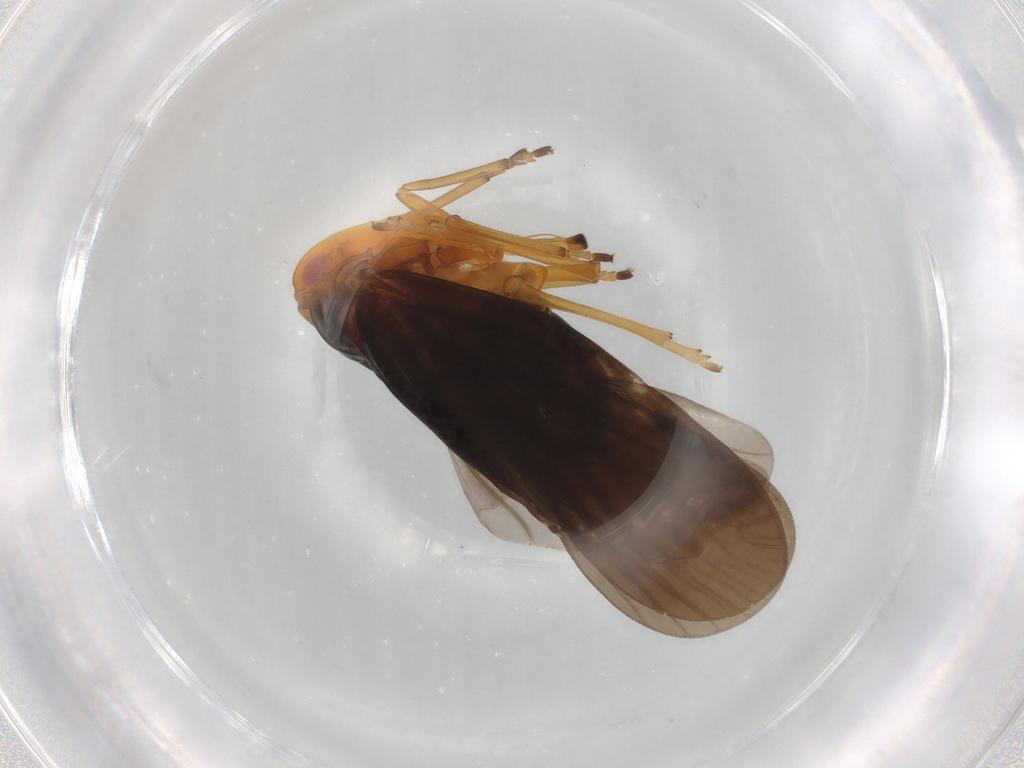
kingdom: Animalia
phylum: Arthropoda
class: Insecta
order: Hemiptera
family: Derbidae
